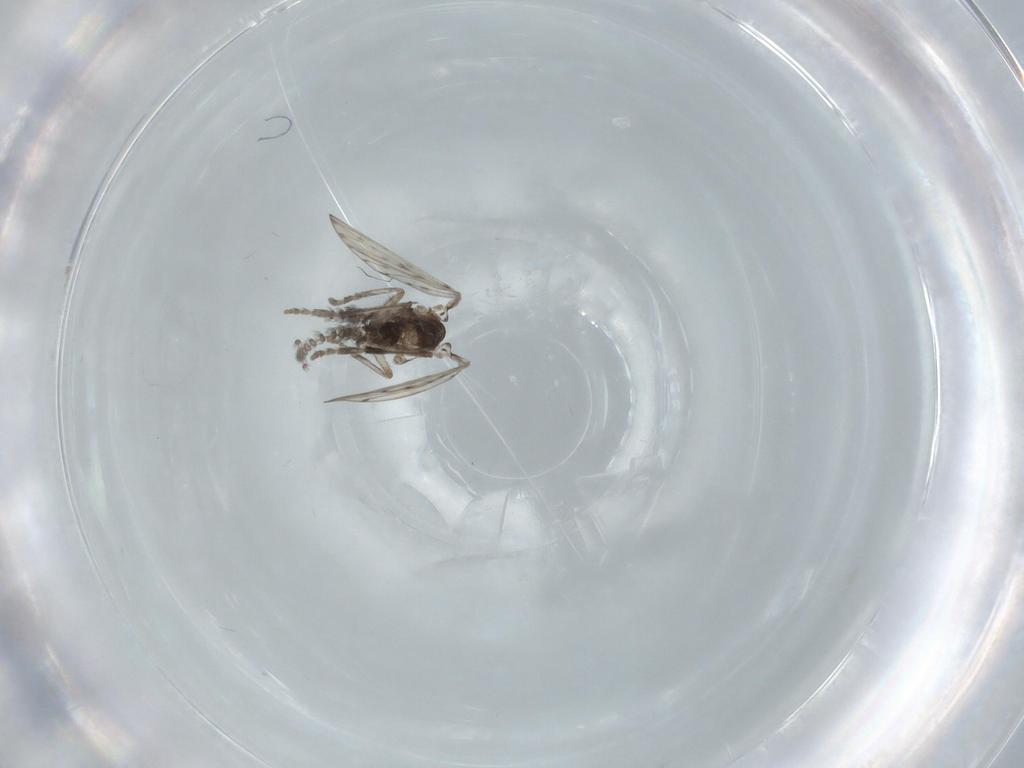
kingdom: Animalia
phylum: Arthropoda
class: Insecta
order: Diptera
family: Psychodidae
